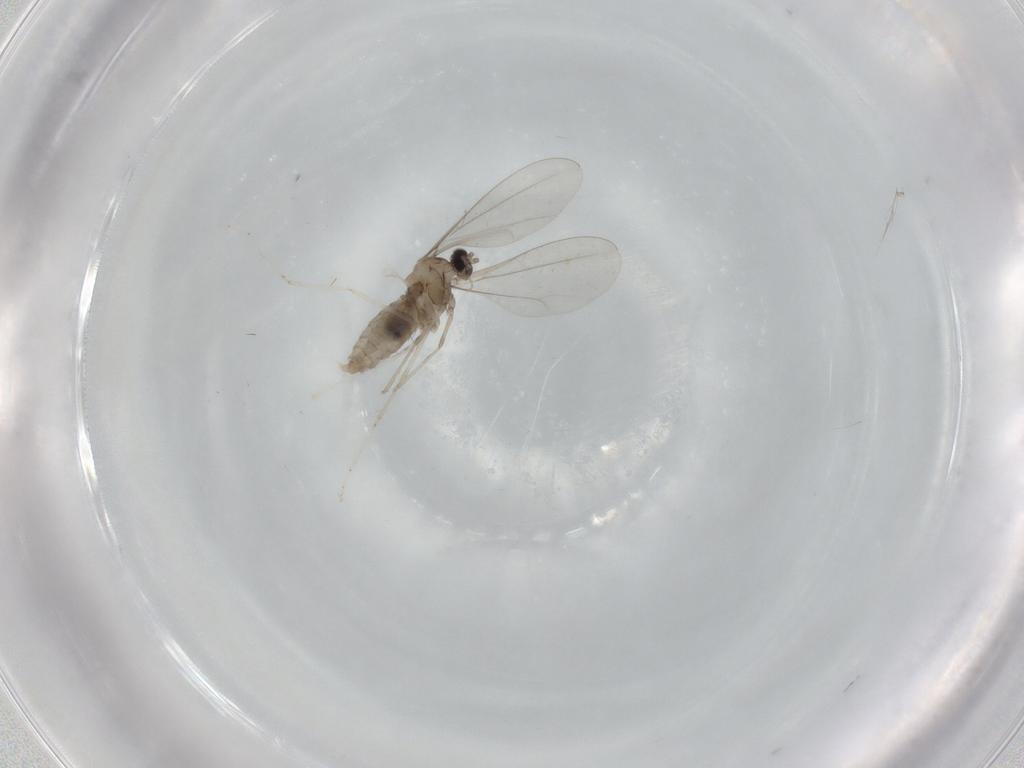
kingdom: Animalia
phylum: Arthropoda
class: Insecta
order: Diptera
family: Cecidomyiidae
